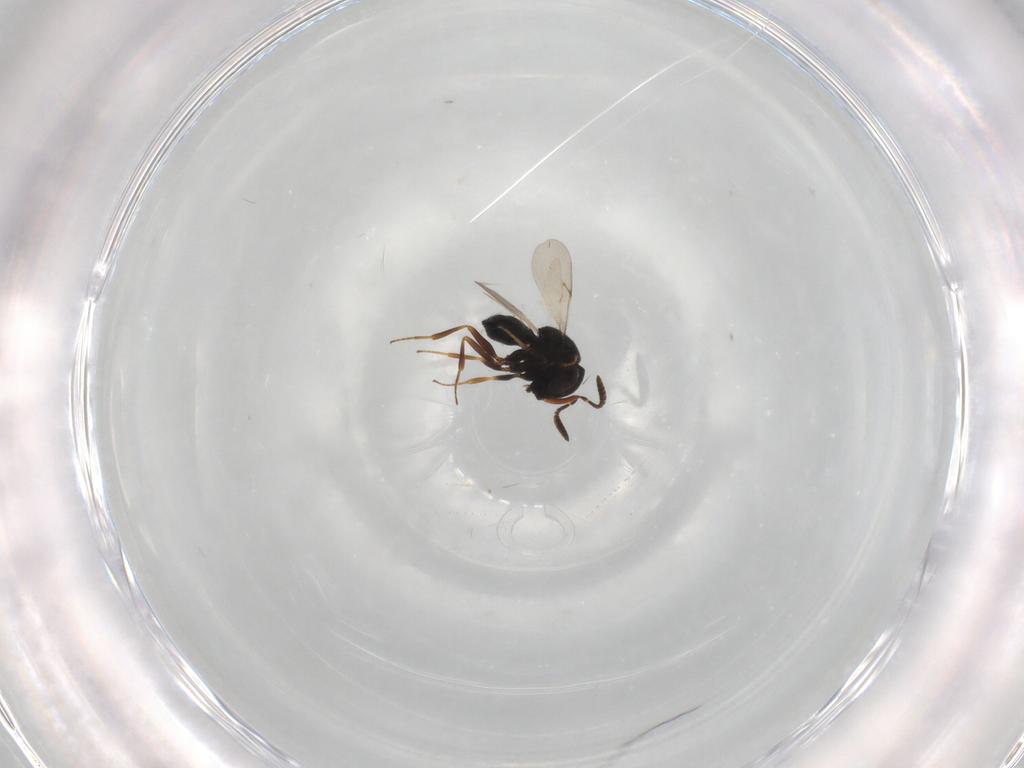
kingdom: Animalia
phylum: Arthropoda
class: Insecta
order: Hymenoptera
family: Scelionidae
